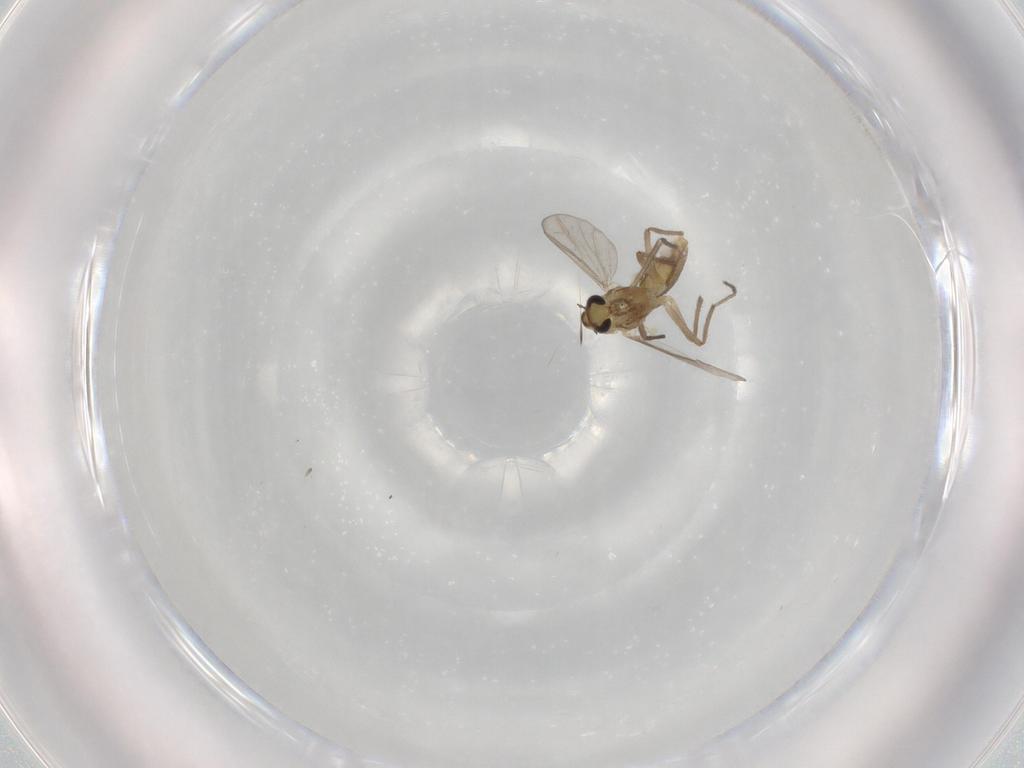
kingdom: Animalia
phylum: Arthropoda
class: Insecta
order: Diptera
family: Chironomidae
